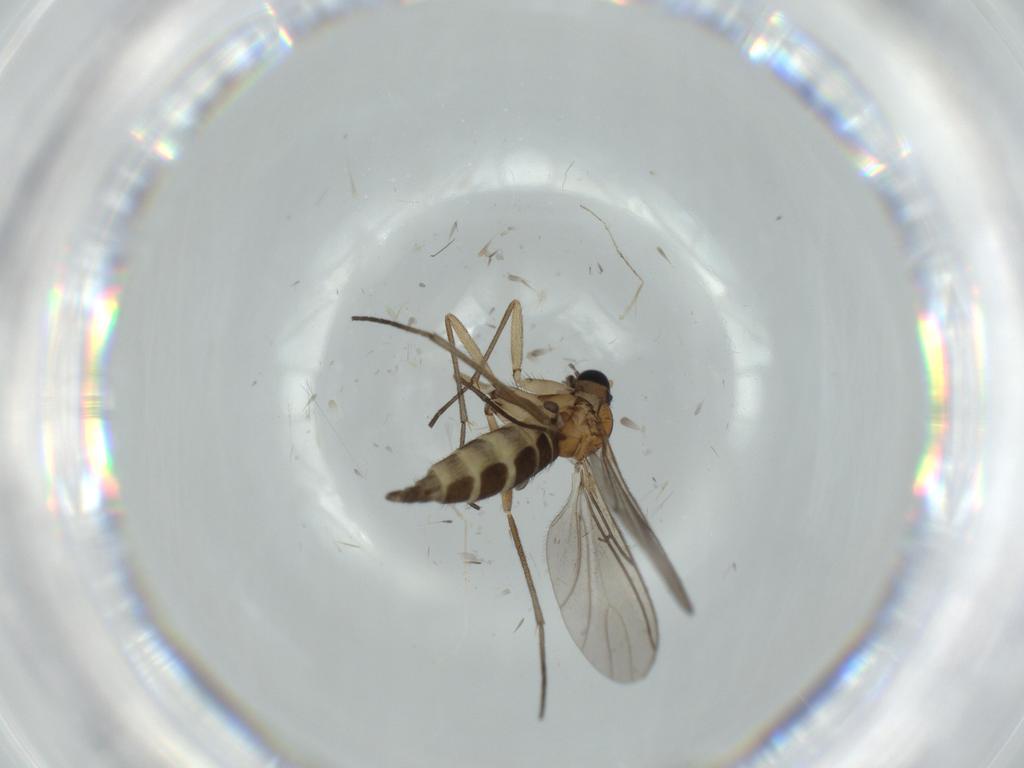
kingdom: Animalia
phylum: Arthropoda
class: Insecta
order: Diptera
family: Sciaridae
